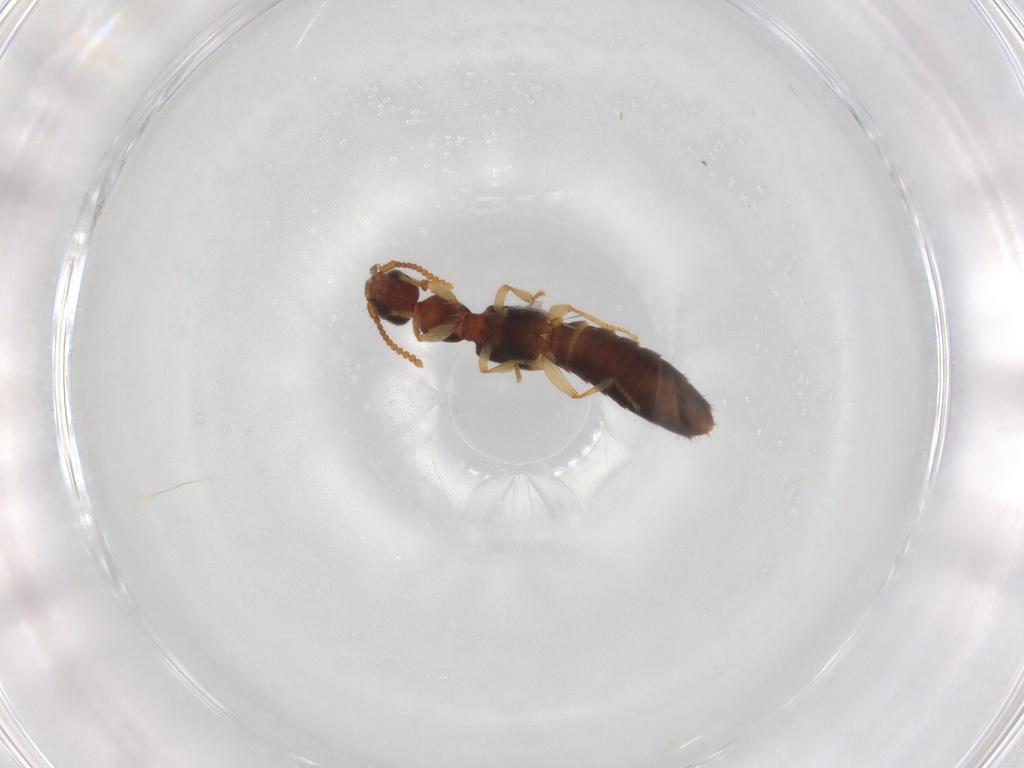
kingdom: Animalia
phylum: Arthropoda
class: Insecta
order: Coleoptera
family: Staphylinidae
